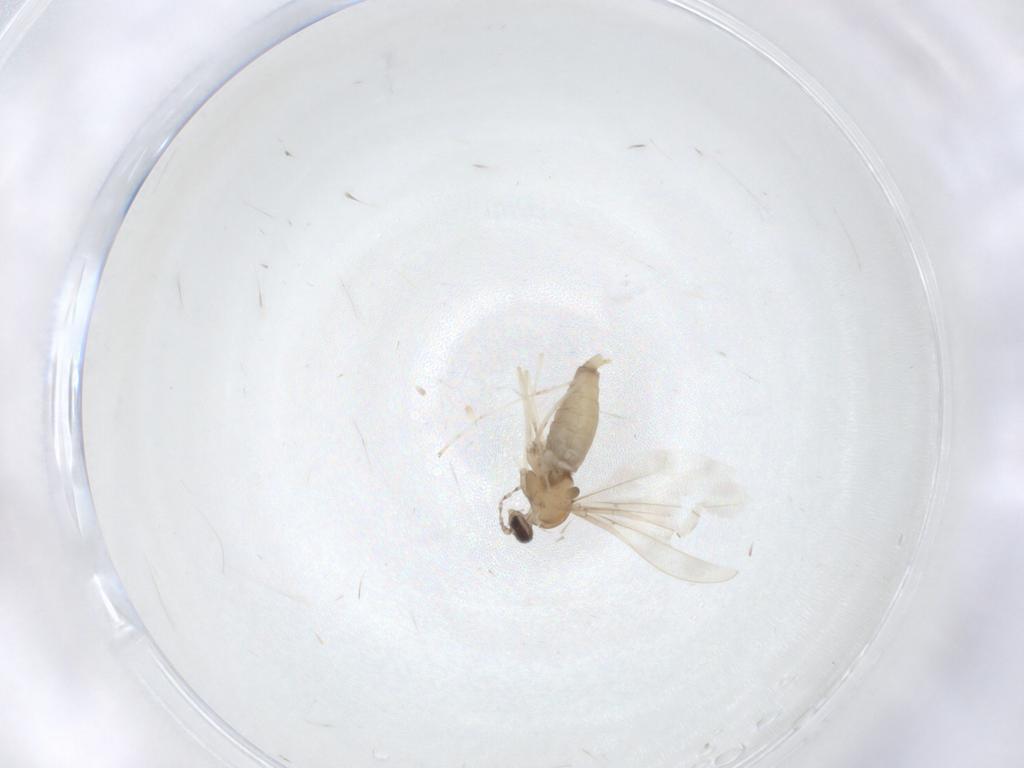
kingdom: Animalia
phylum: Arthropoda
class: Insecta
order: Diptera
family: Cecidomyiidae
